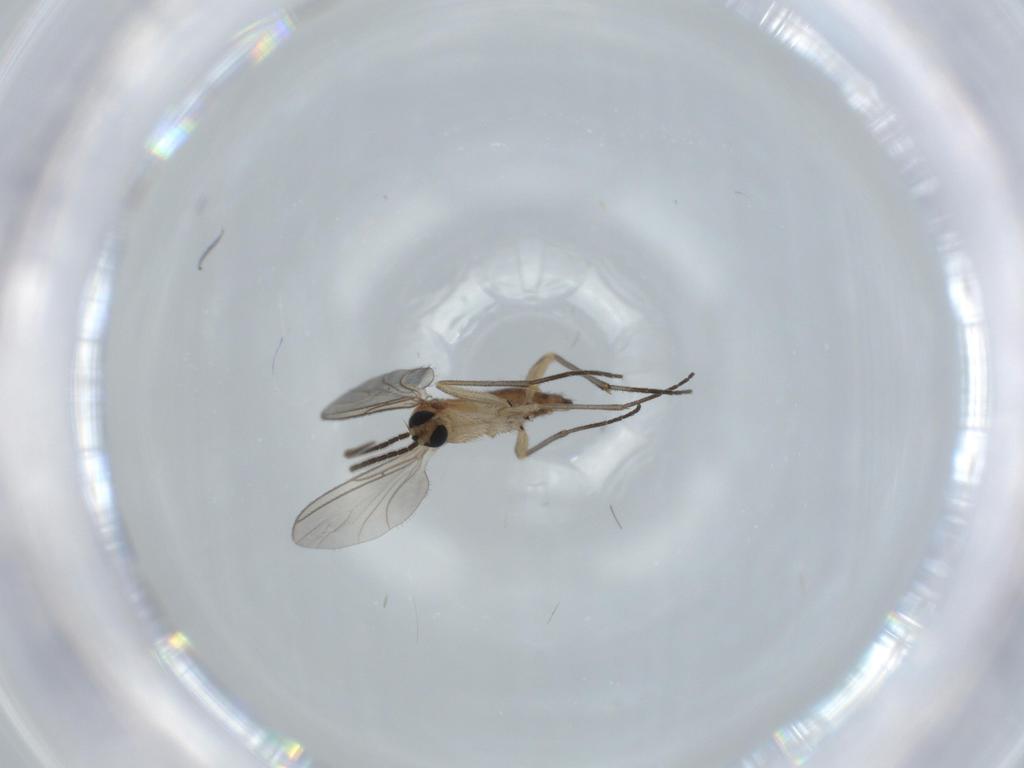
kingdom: Animalia
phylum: Arthropoda
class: Insecta
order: Diptera
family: Sciaridae
